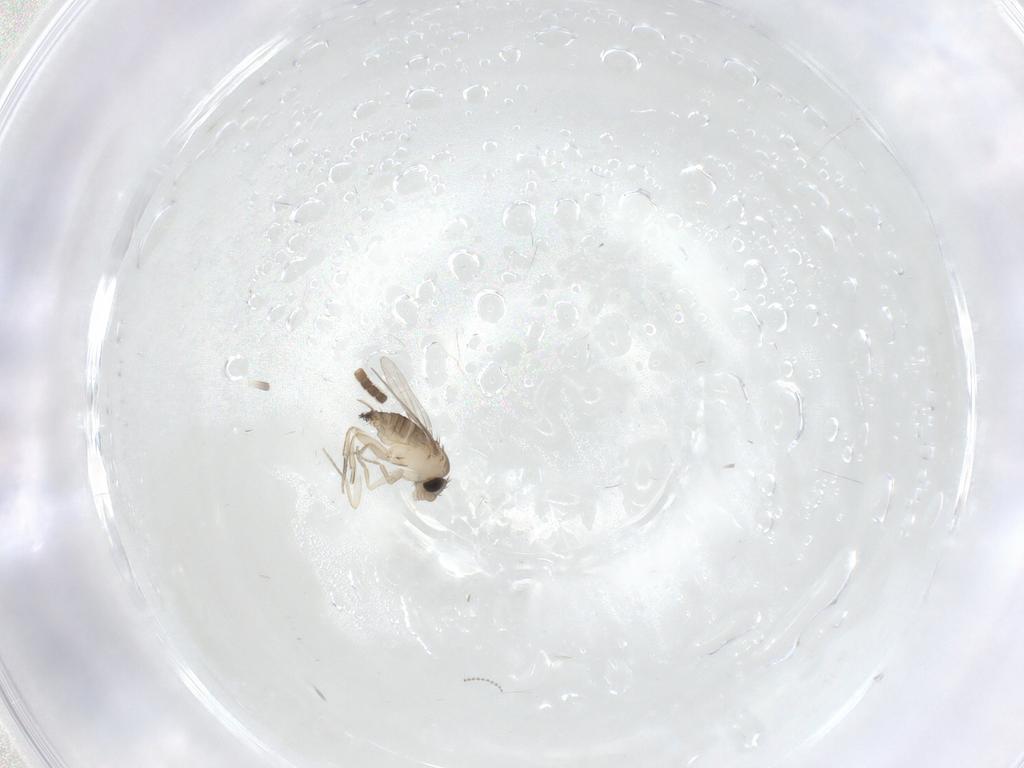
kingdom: Animalia
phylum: Arthropoda
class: Insecta
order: Diptera
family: Phoridae
